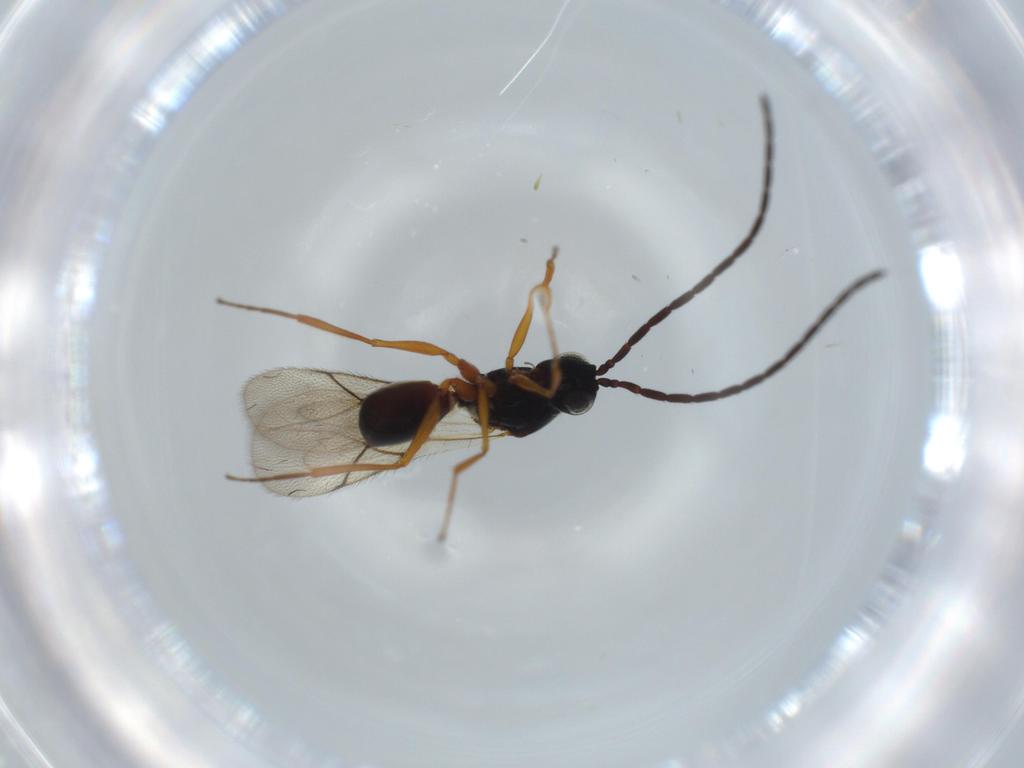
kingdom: Animalia
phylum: Arthropoda
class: Insecta
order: Hymenoptera
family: Figitidae
